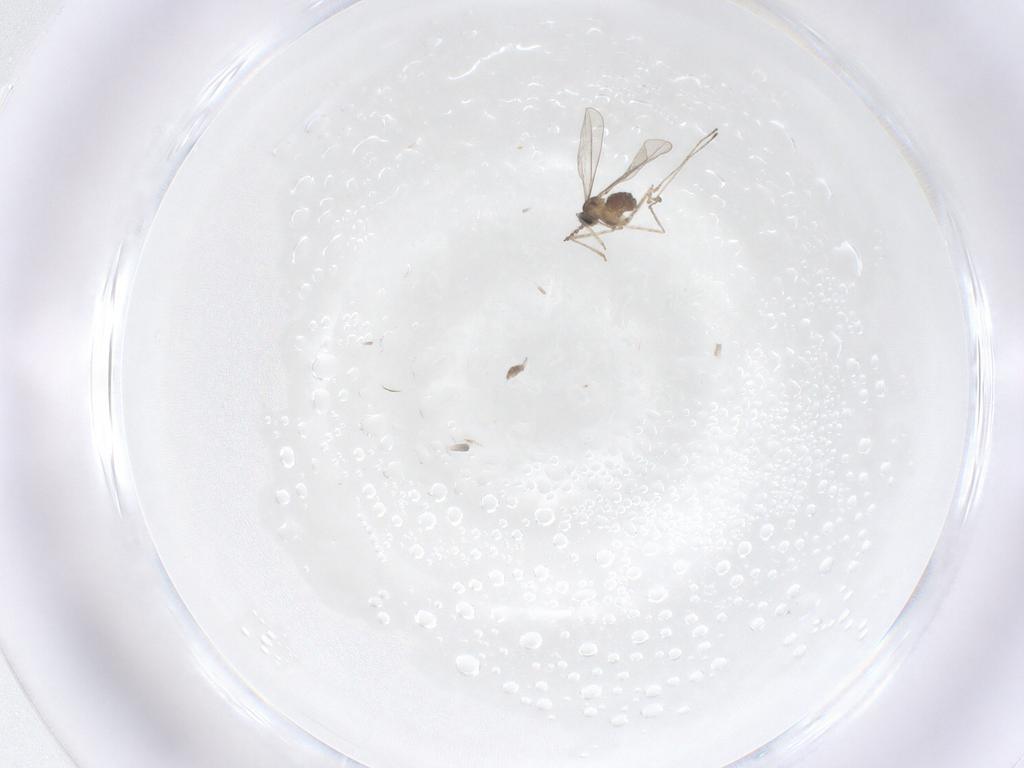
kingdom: Animalia
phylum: Arthropoda
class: Insecta
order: Diptera
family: Cecidomyiidae
